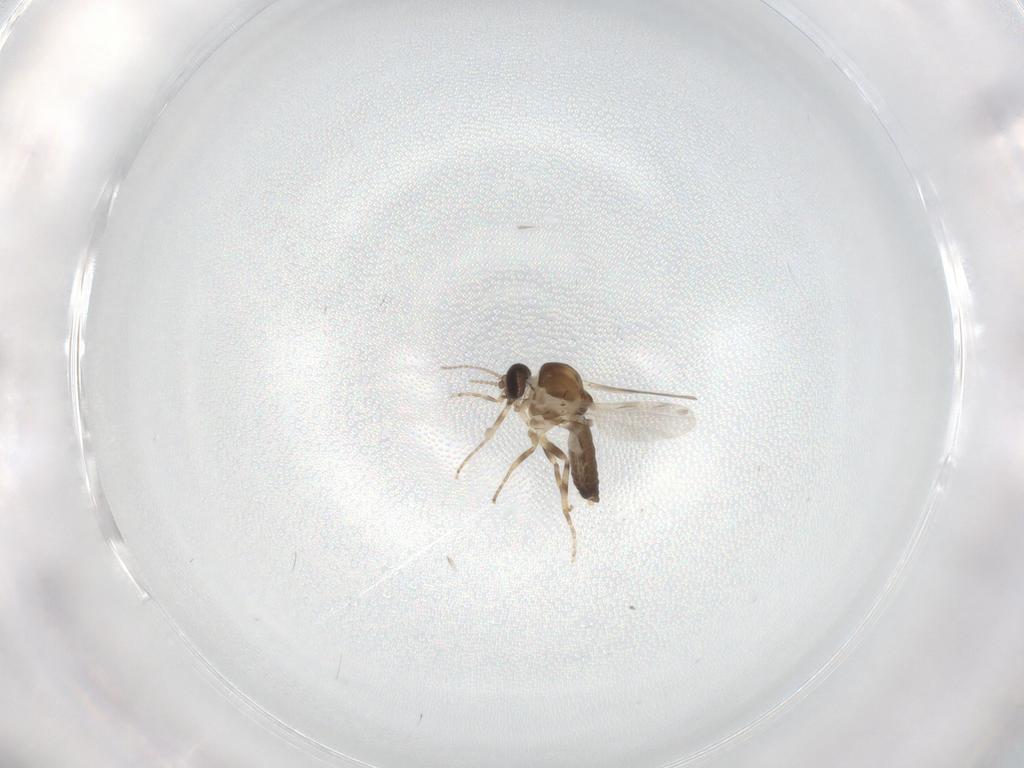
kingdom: Animalia
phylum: Arthropoda
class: Insecta
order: Diptera
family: Ceratopogonidae
